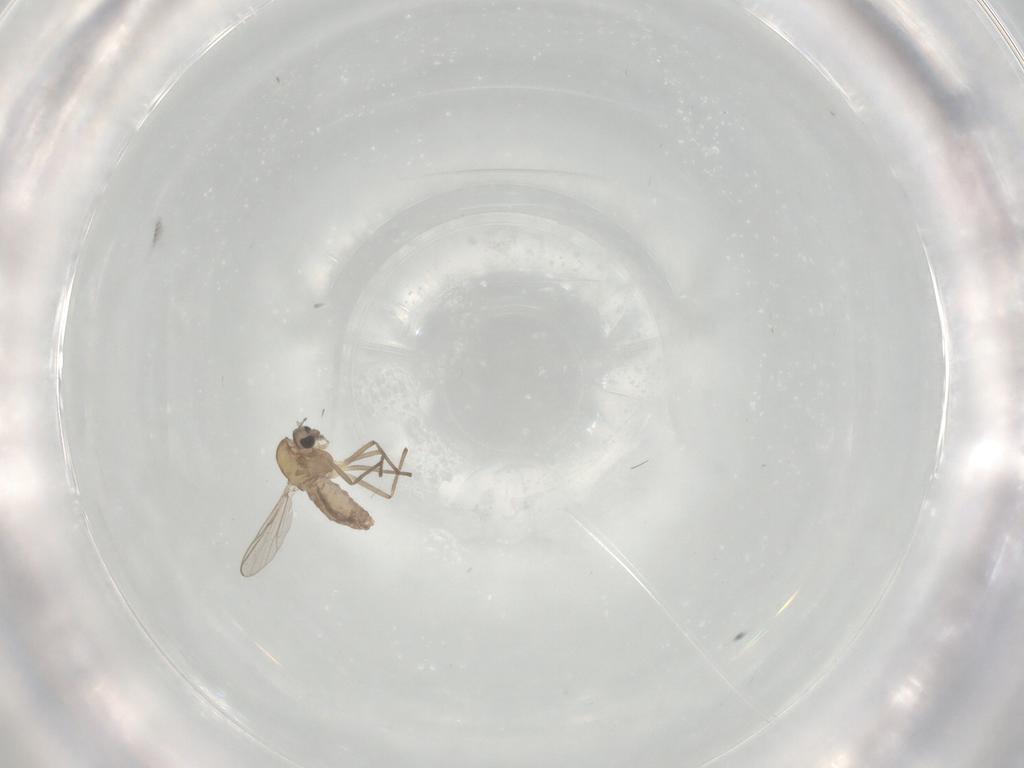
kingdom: Animalia
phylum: Arthropoda
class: Insecta
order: Diptera
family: Chironomidae
